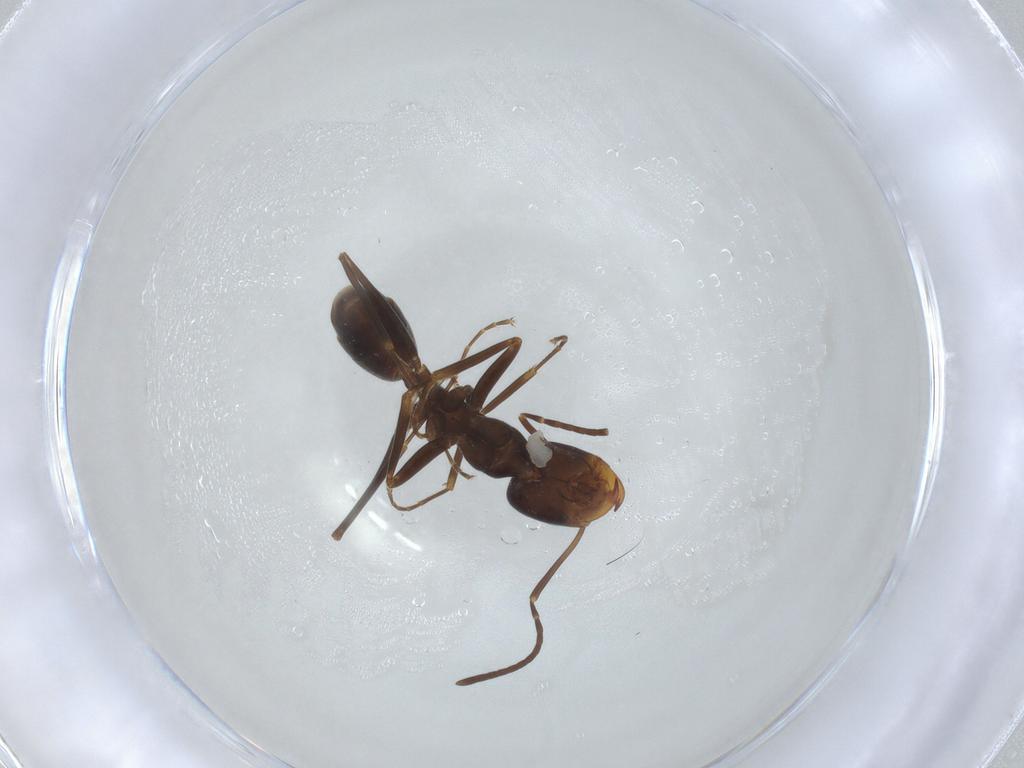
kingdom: Animalia
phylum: Arthropoda
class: Insecta
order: Hymenoptera
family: Formicidae
